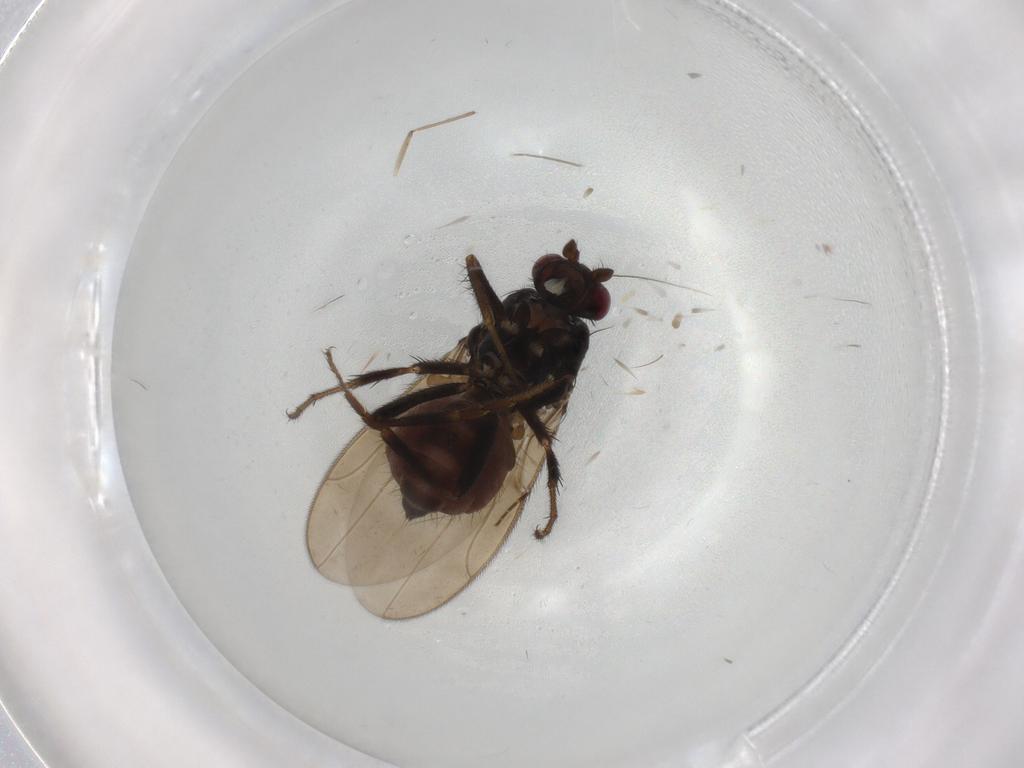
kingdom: Animalia
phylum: Arthropoda
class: Insecta
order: Diptera
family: Sphaeroceridae
